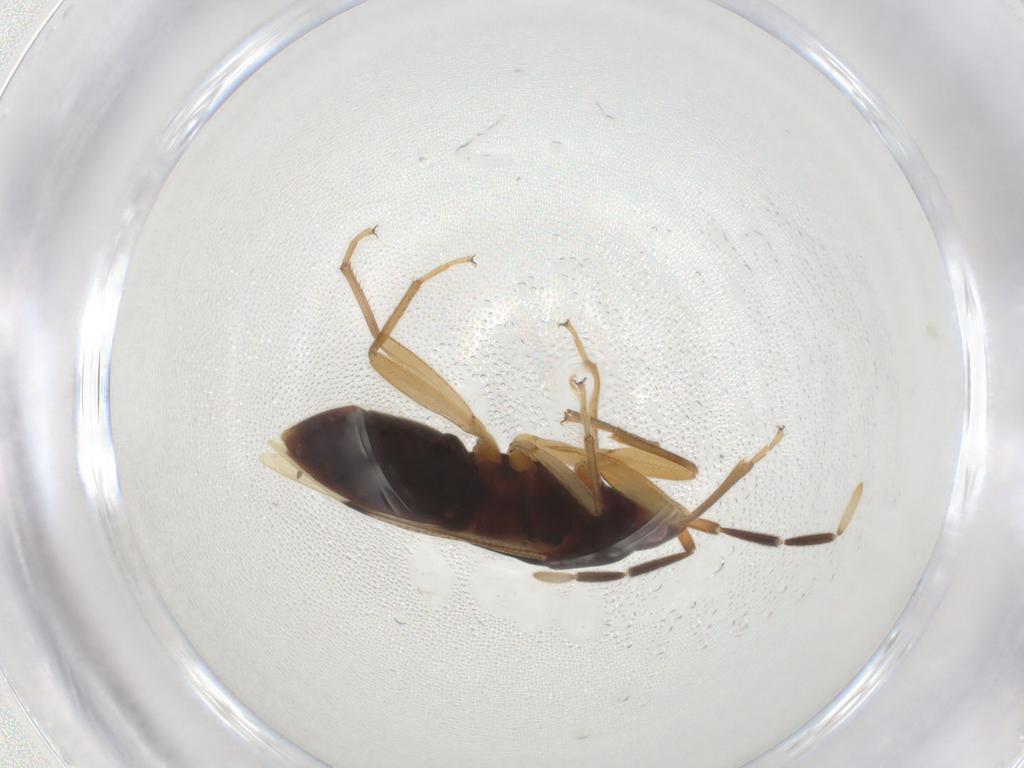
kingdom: Animalia
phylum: Arthropoda
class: Insecta
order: Hemiptera
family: Rhyparochromidae
